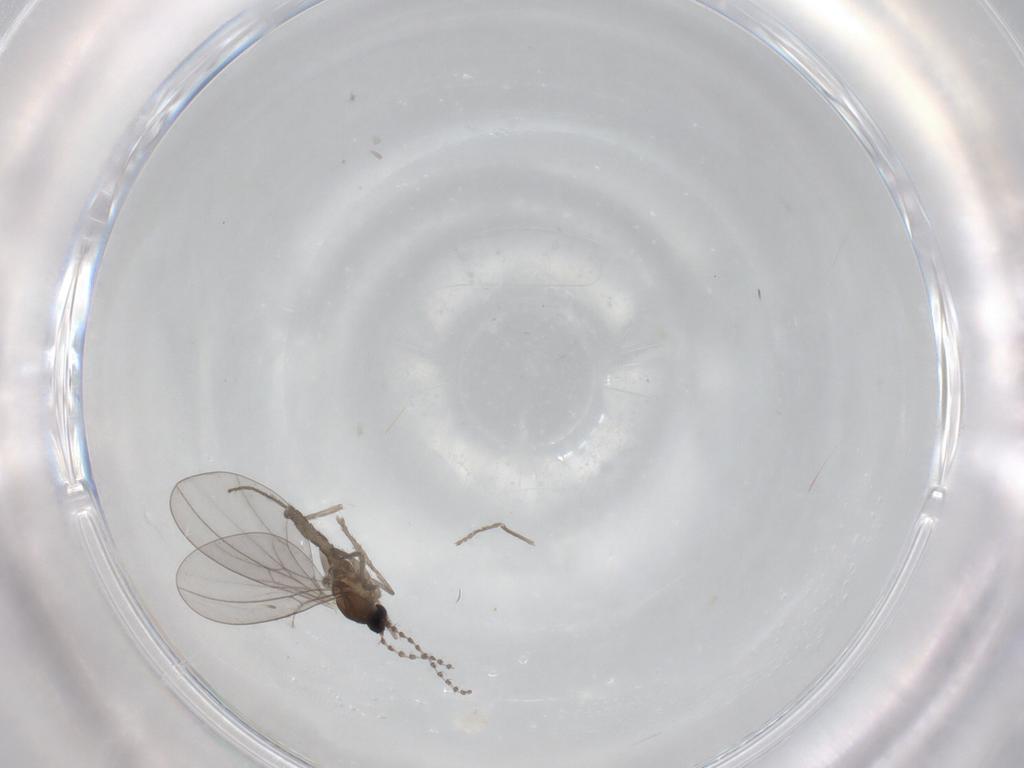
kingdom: Animalia
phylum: Arthropoda
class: Insecta
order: Diptera
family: Cecidomyiidae
